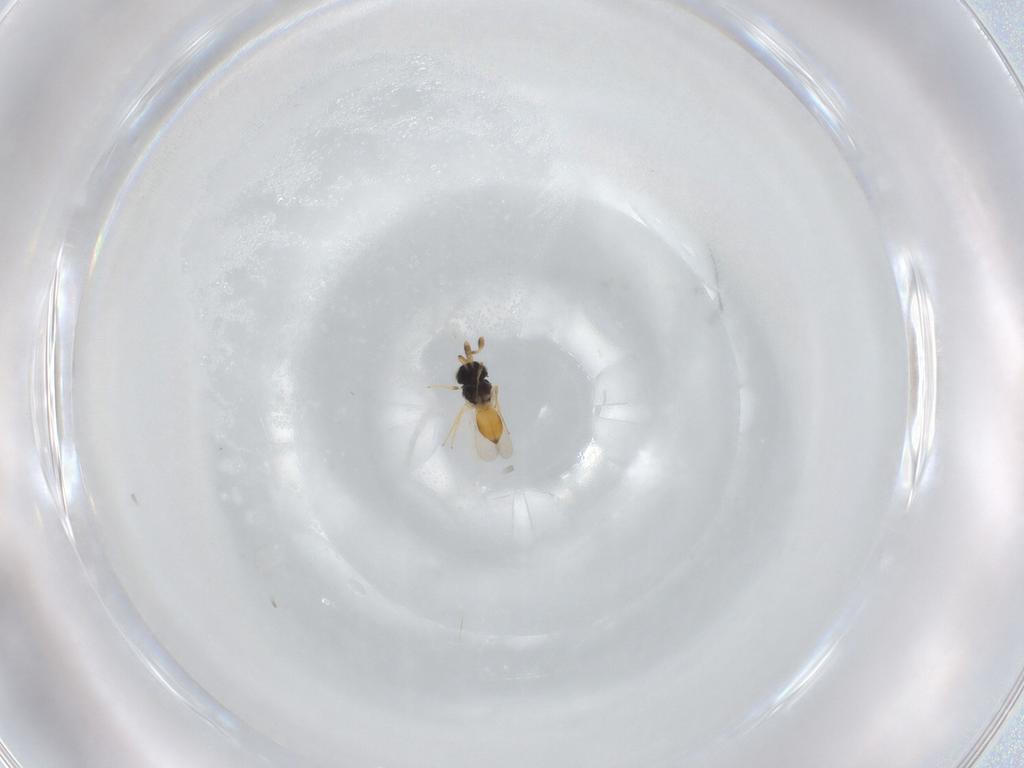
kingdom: Animalia
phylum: Arthropoda
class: Insecta
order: Hymenoptera
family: Scelionidae
